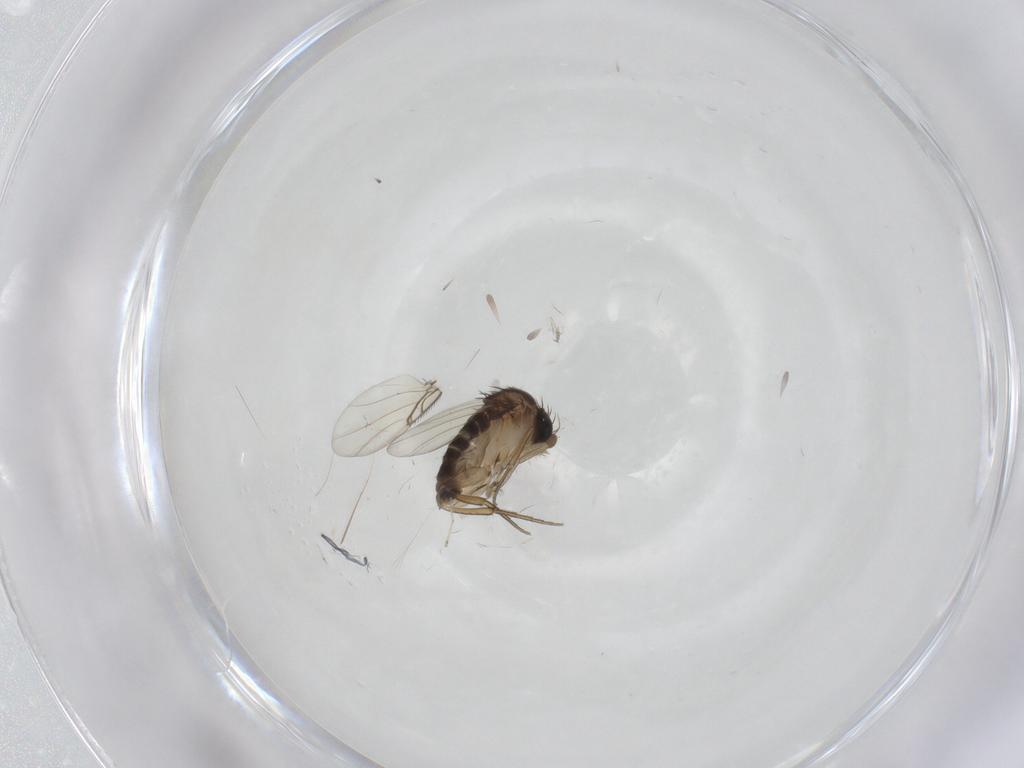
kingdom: Animalia
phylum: Arthropoda
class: Insecta
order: Diptera
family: Cecidomyiidae
